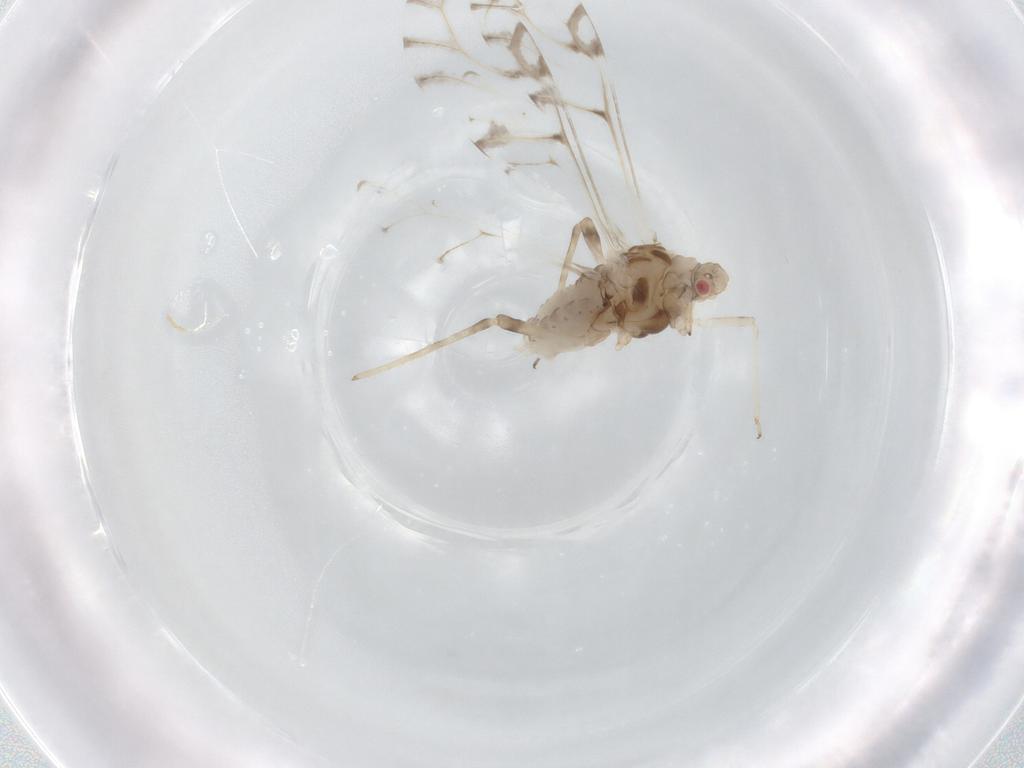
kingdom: Animalia
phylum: Arthropoda
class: Insecta
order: Hemiptera
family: Aphididae
